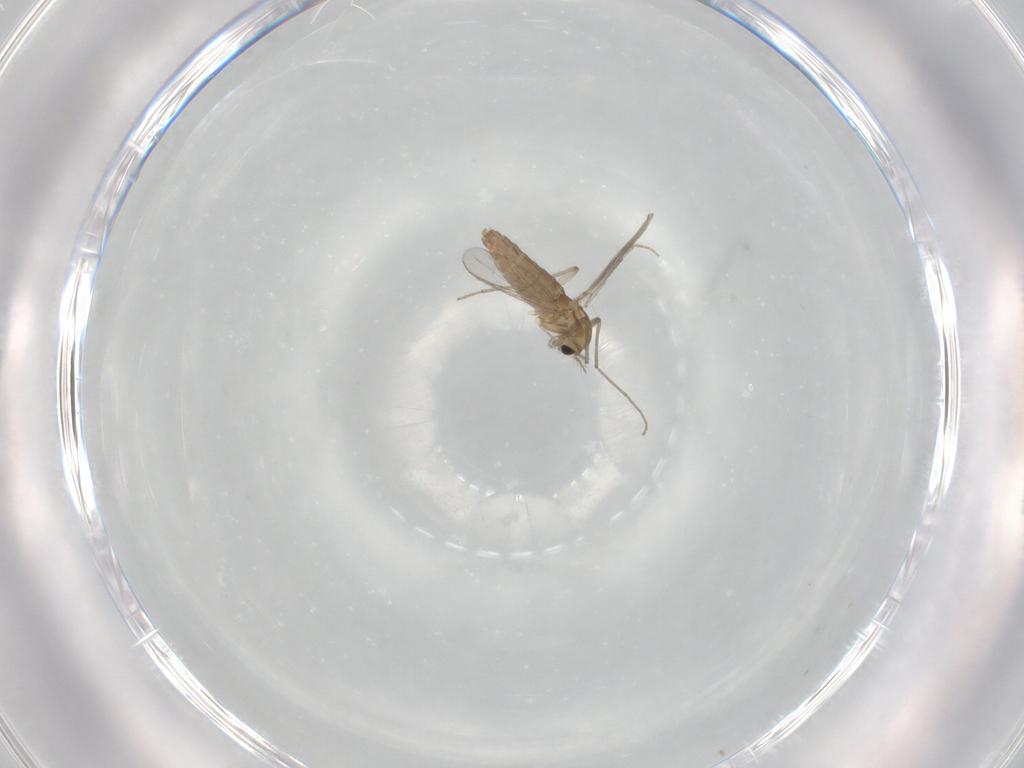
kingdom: Animalia
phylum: Arthropoda
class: Insecta
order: Diptera
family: Chironomidae
